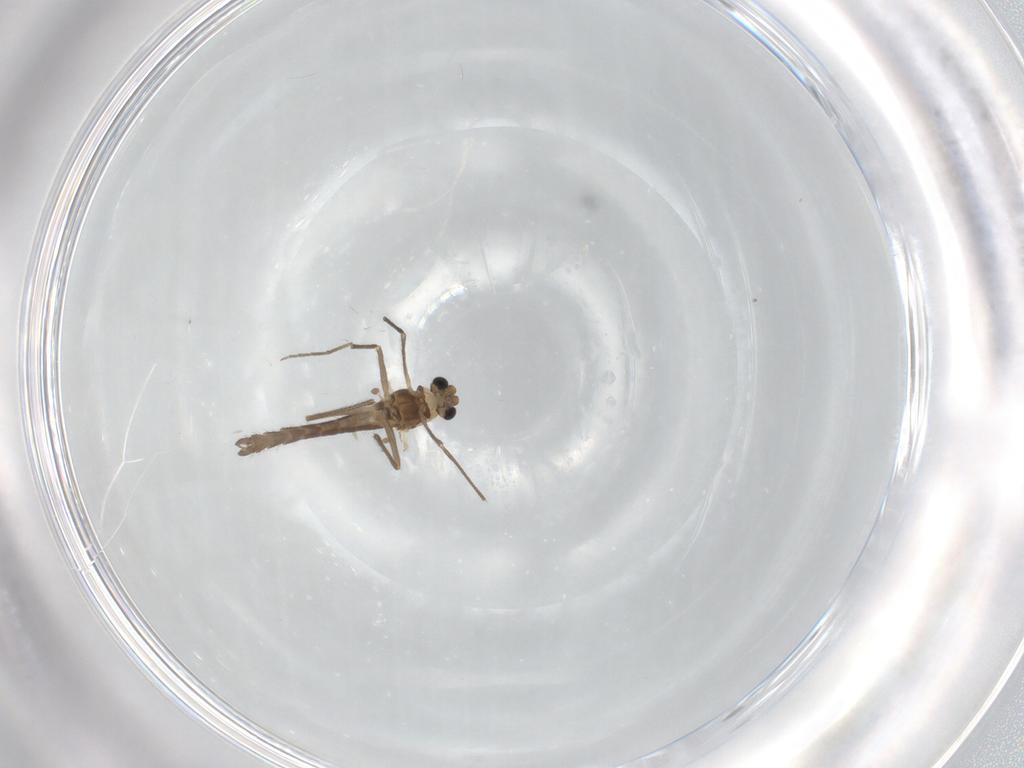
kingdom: Animalia
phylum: Arthropoda
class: Insecta
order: Diptera
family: Chironomidae
